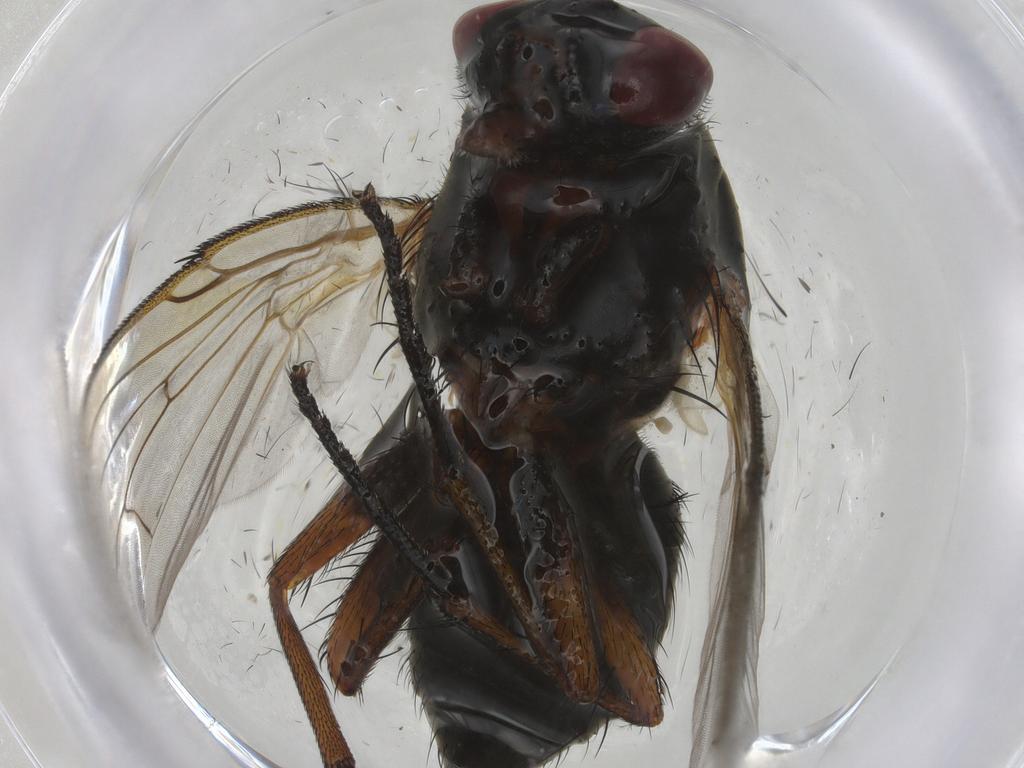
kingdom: Animalia
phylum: Arthropoda
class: Insecta
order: Diptera
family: Muscidae
